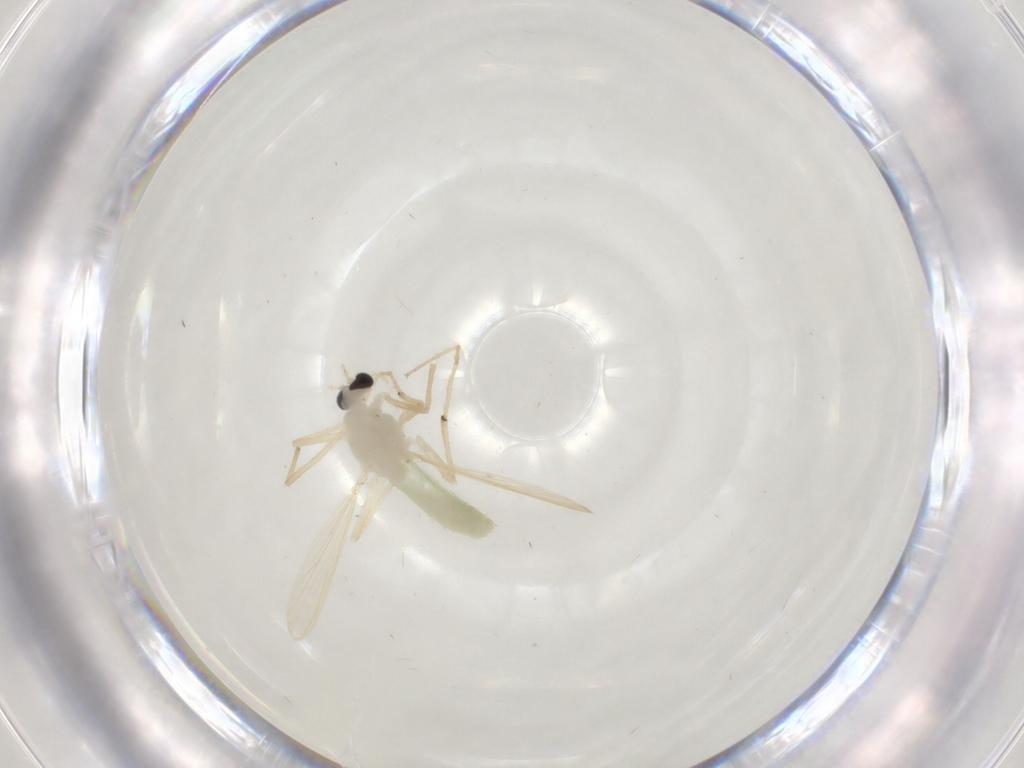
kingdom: Animalia
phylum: Arthropoda
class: Insecta
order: Diptera
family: Chironomidae
